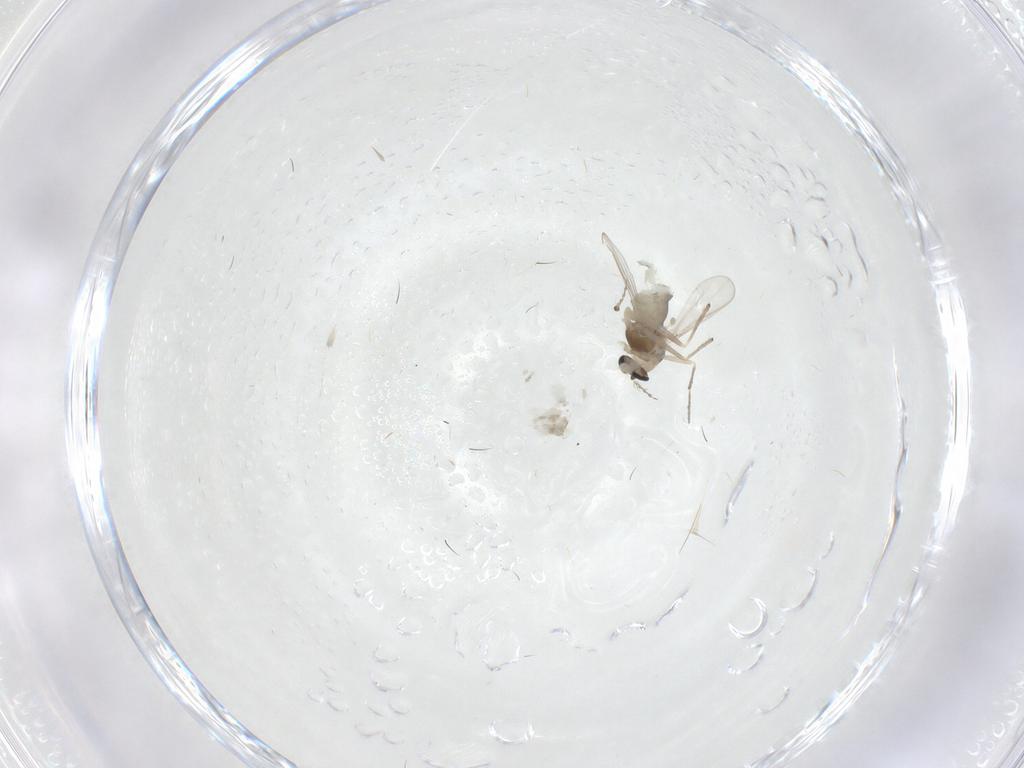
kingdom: Animalia
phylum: Arthropoda
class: Insecta
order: Diptera
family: Chironomidae
